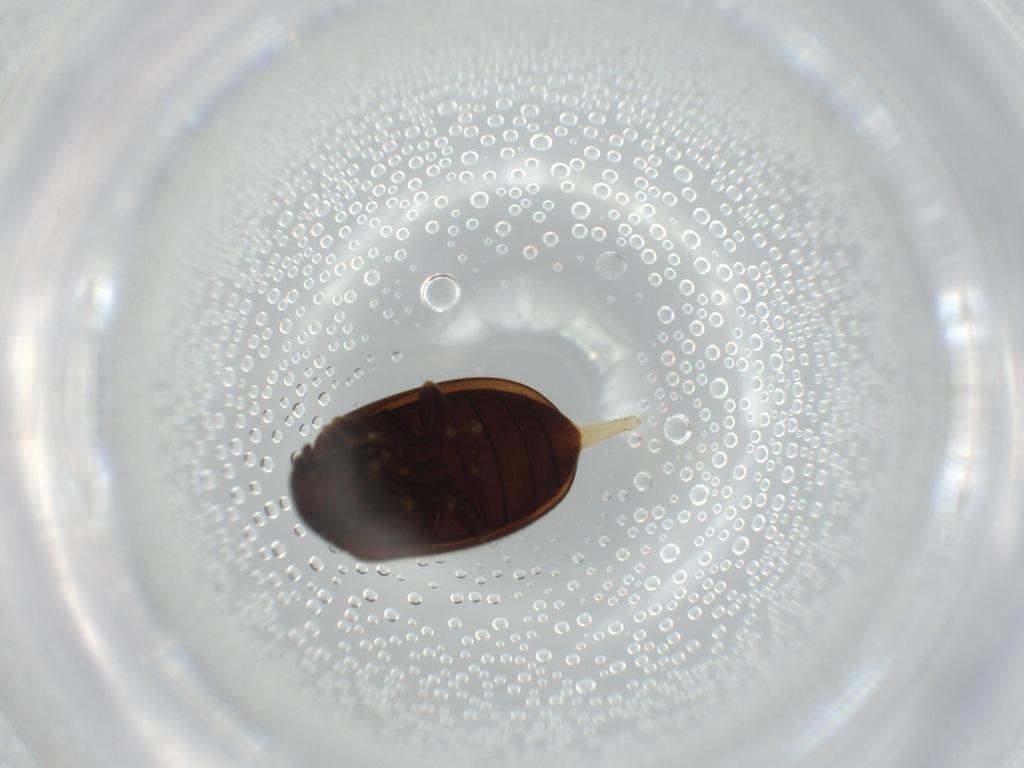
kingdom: Animalia
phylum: Arthropoda
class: Insecta
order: Coleoptera
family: Scirtidae
